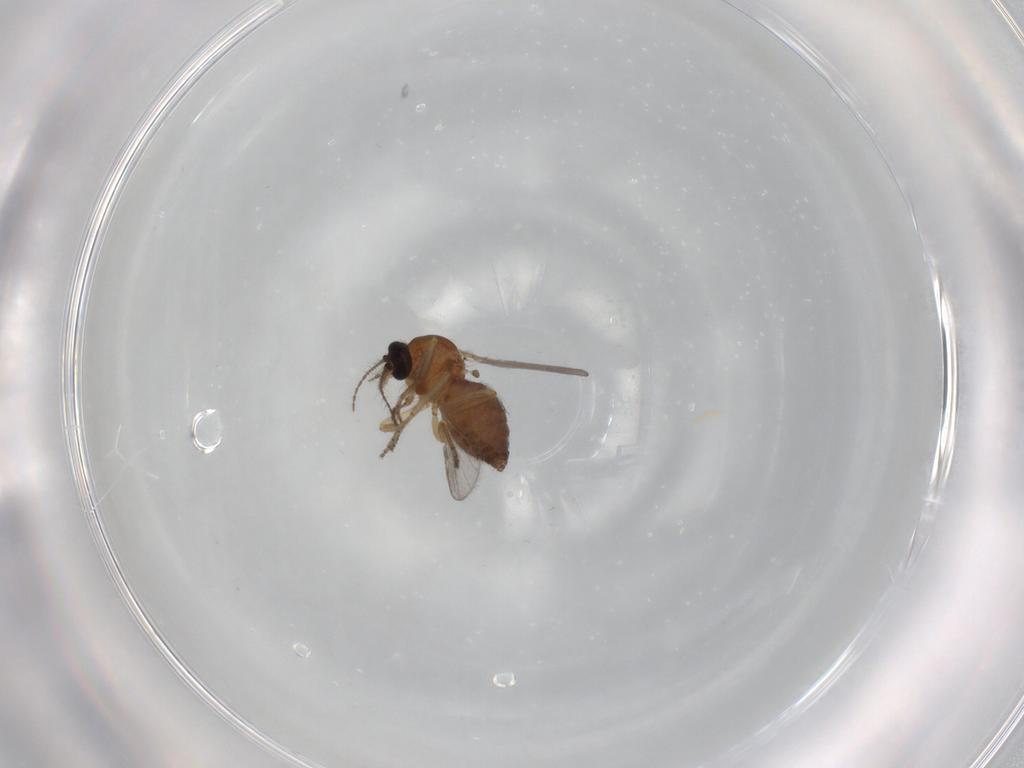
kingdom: Animalia
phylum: Arthropoda
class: Insecta
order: Diptera
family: Ceratopogonidae
